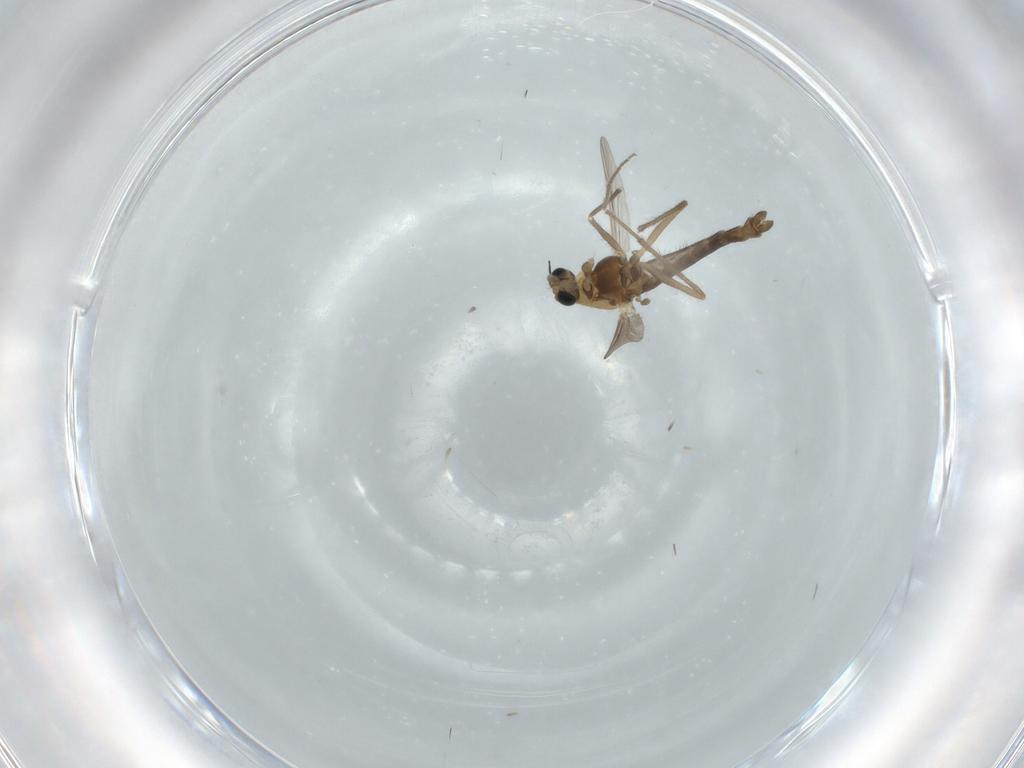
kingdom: Animalia
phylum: Arthropoda
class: Insecta
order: Diptera
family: Chironomidae
